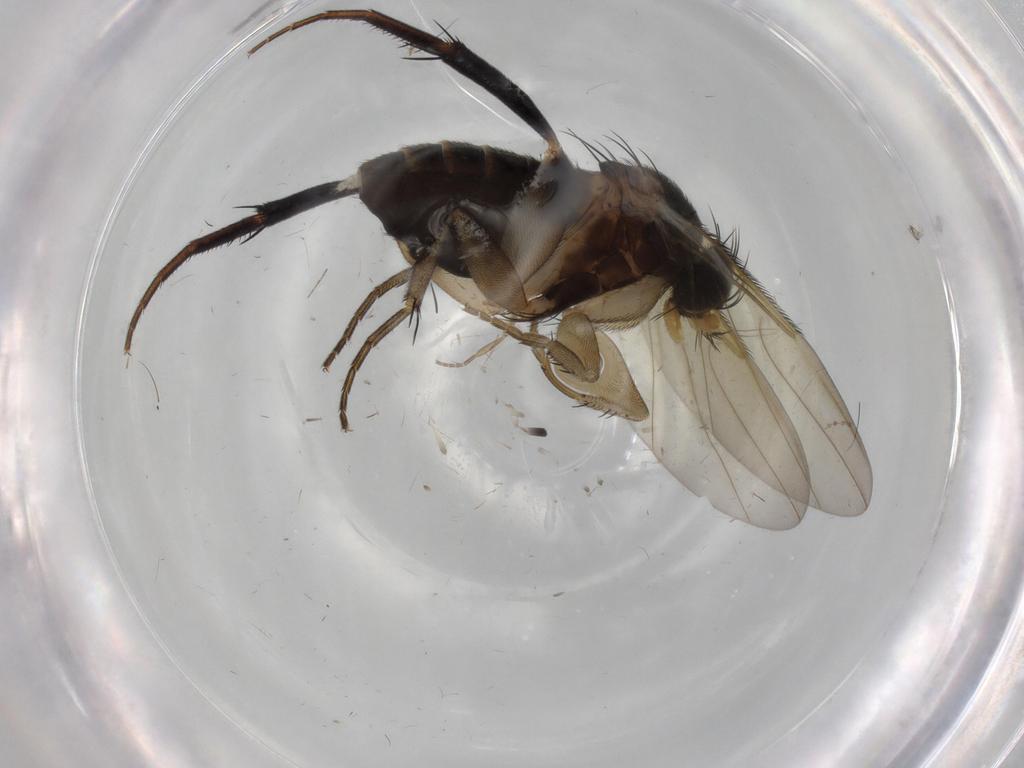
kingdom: Animalia
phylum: Arthropoda
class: Insecta
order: Diptera
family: Phoridae
